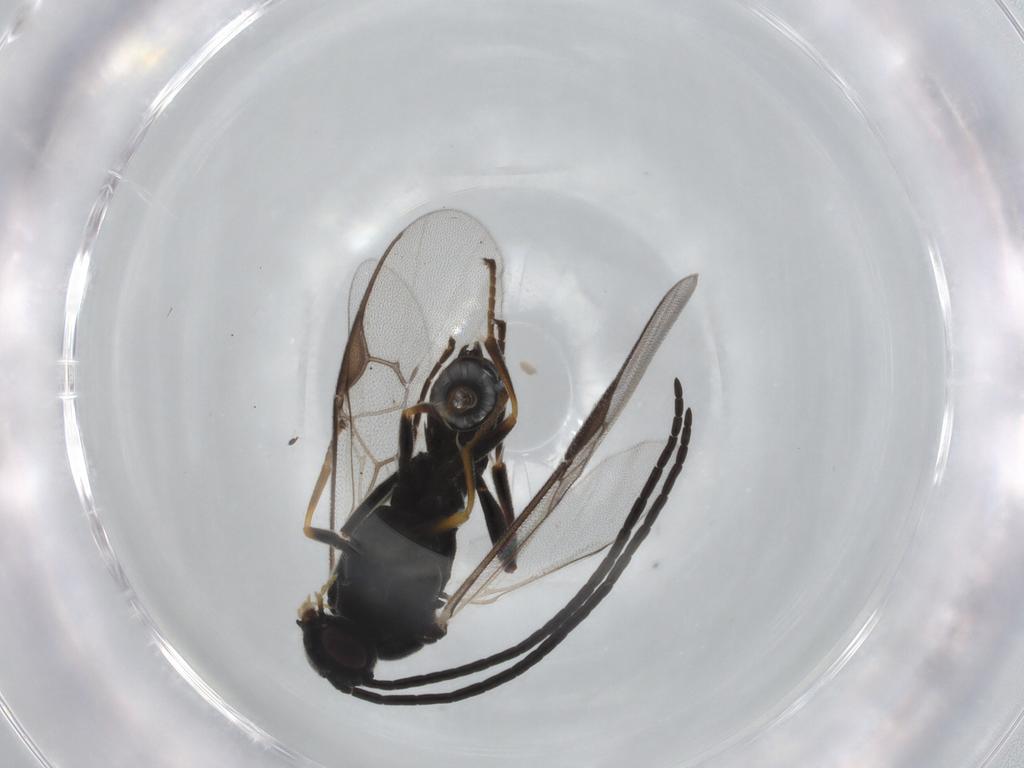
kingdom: Animalia
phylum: Arthropoda
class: Insecta
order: Hymenoptera
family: Braconidae
